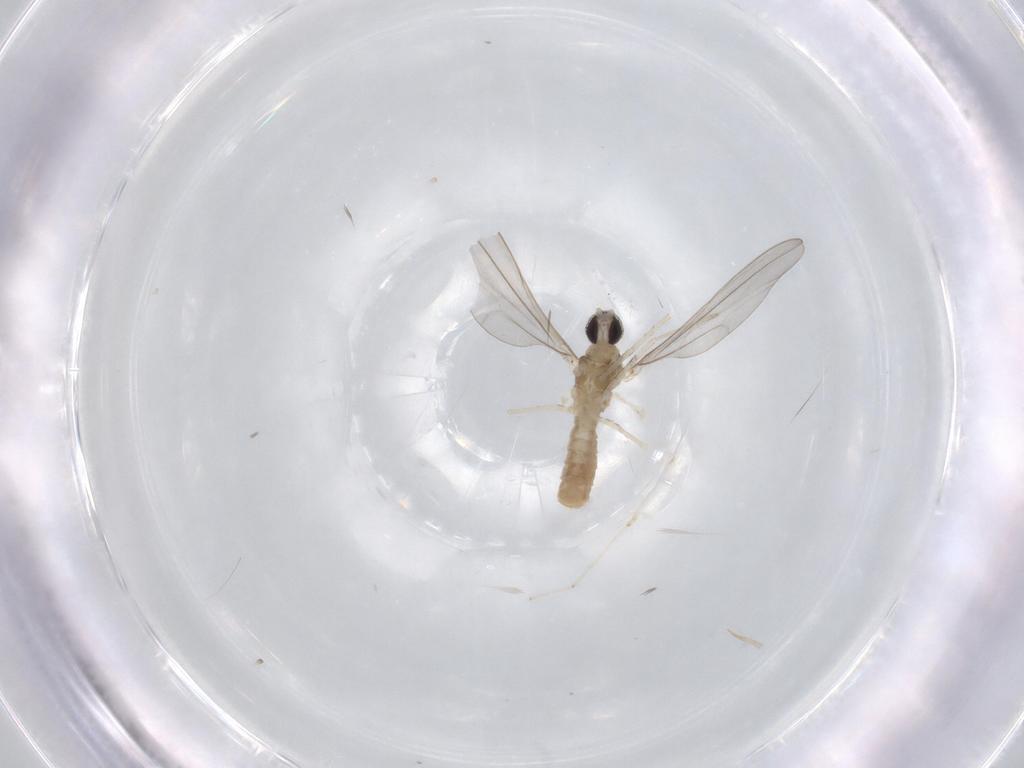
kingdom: Animalia
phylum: Arthropoda
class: Insecta
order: Diptera
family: Cecidomyiidae
